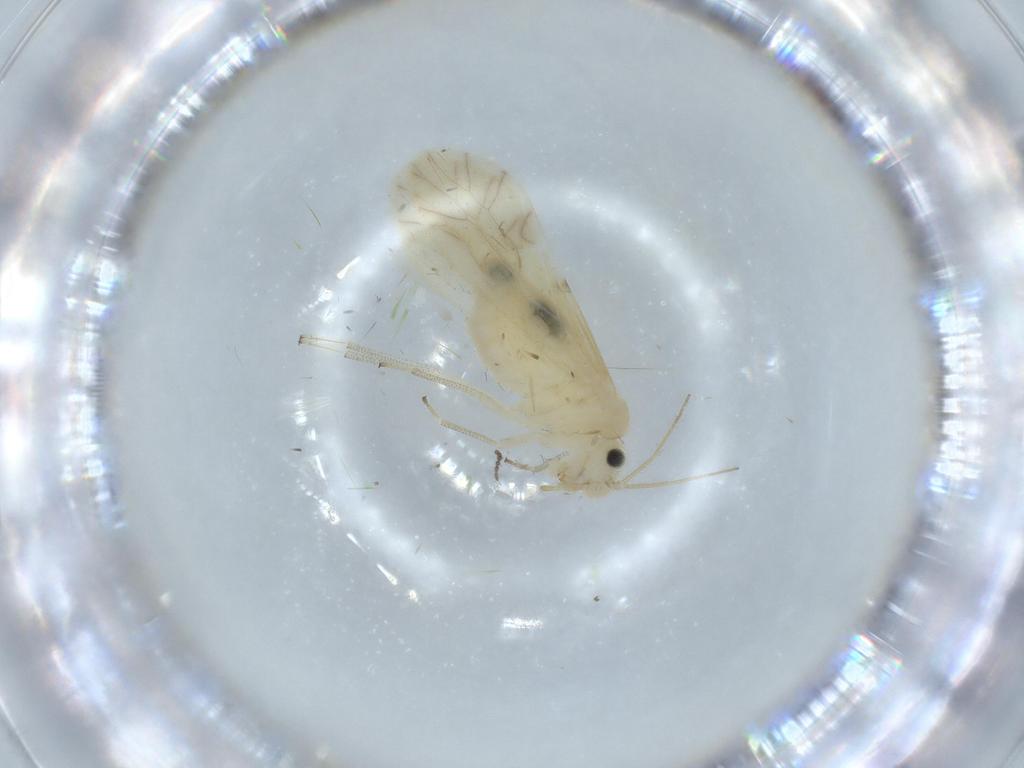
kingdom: Animalia
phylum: Arthropoda
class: Insecta
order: Psocodea
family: Caeciliusidae
